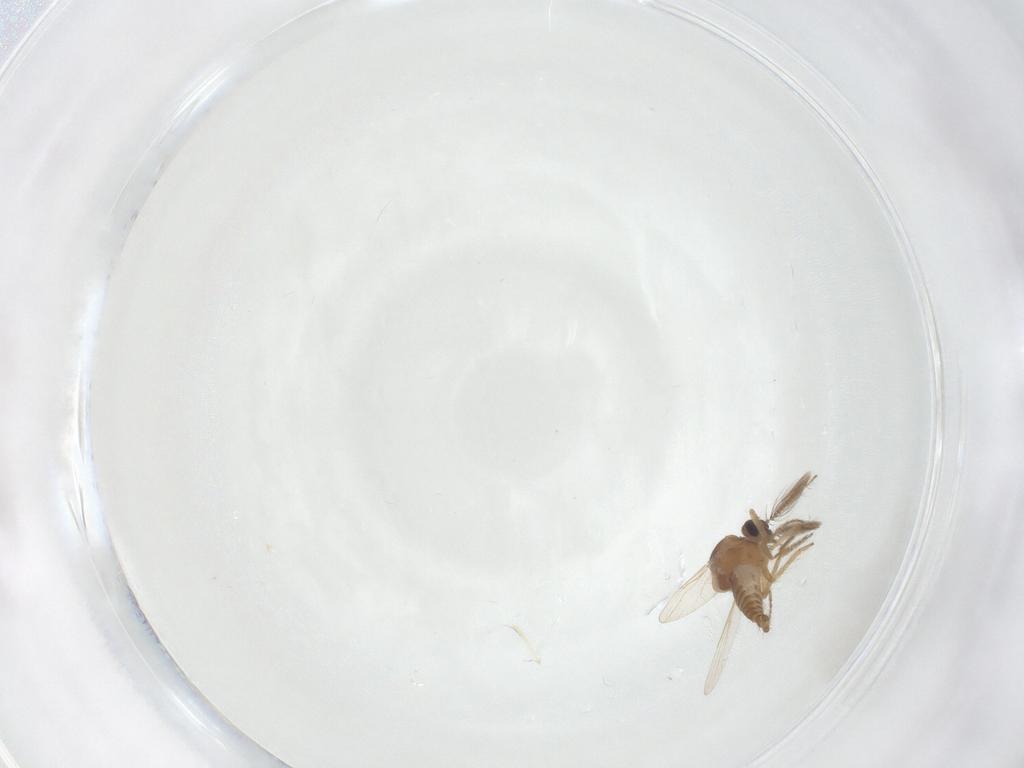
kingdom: Animalia
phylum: Arthropoda
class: Insecta
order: Diptera
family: Ceratopogonidae
